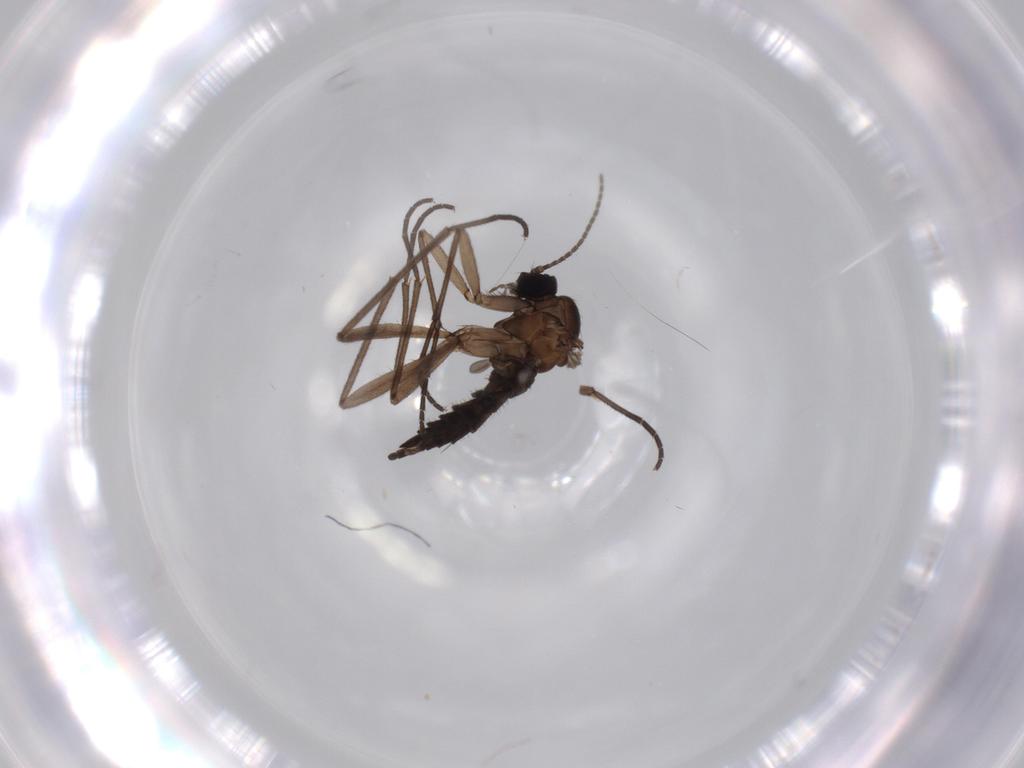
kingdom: Animalia
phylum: Arthropoda
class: Insecta
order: Diptera
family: Sciaridae
